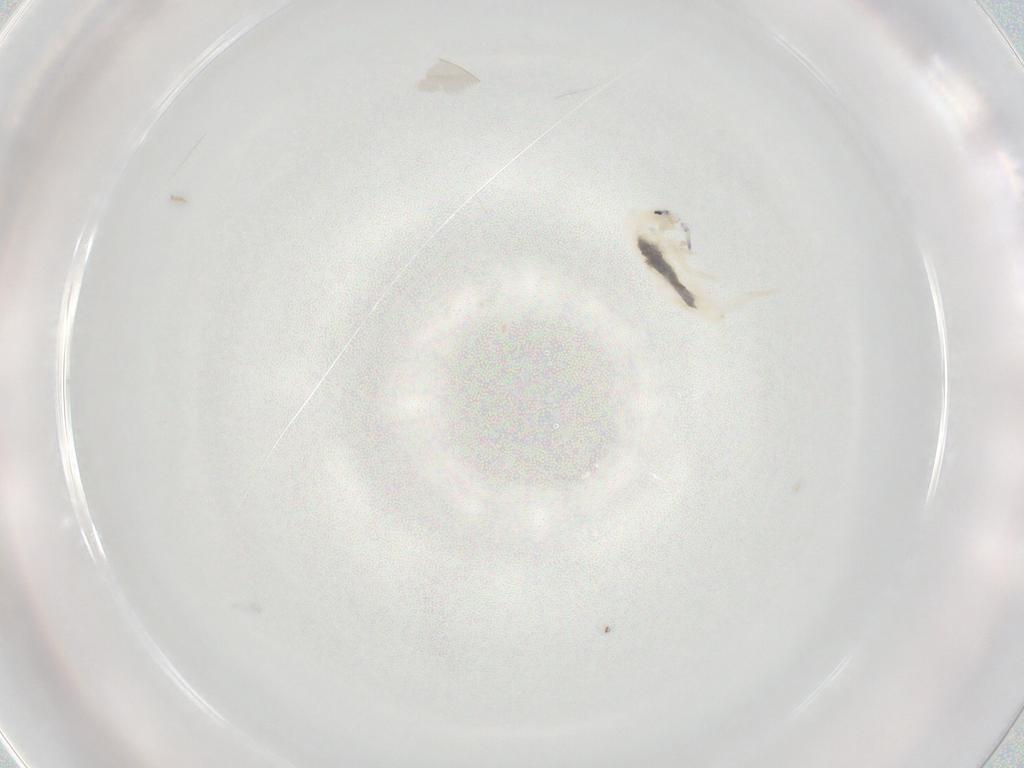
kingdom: Animalia
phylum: Arthropoda
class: Collembola
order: Entomobryomorpha
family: Entomobryidae
